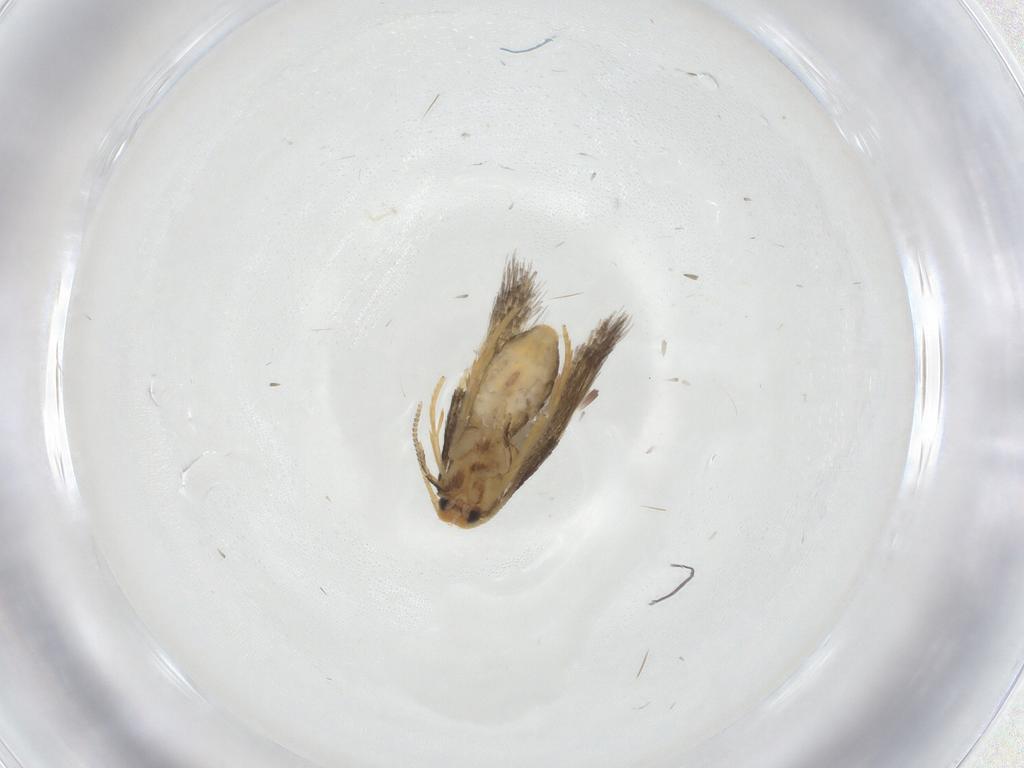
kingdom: Animalia
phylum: Arthropoda
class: Insecta
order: Lepidoptera
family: Nepticulidae
